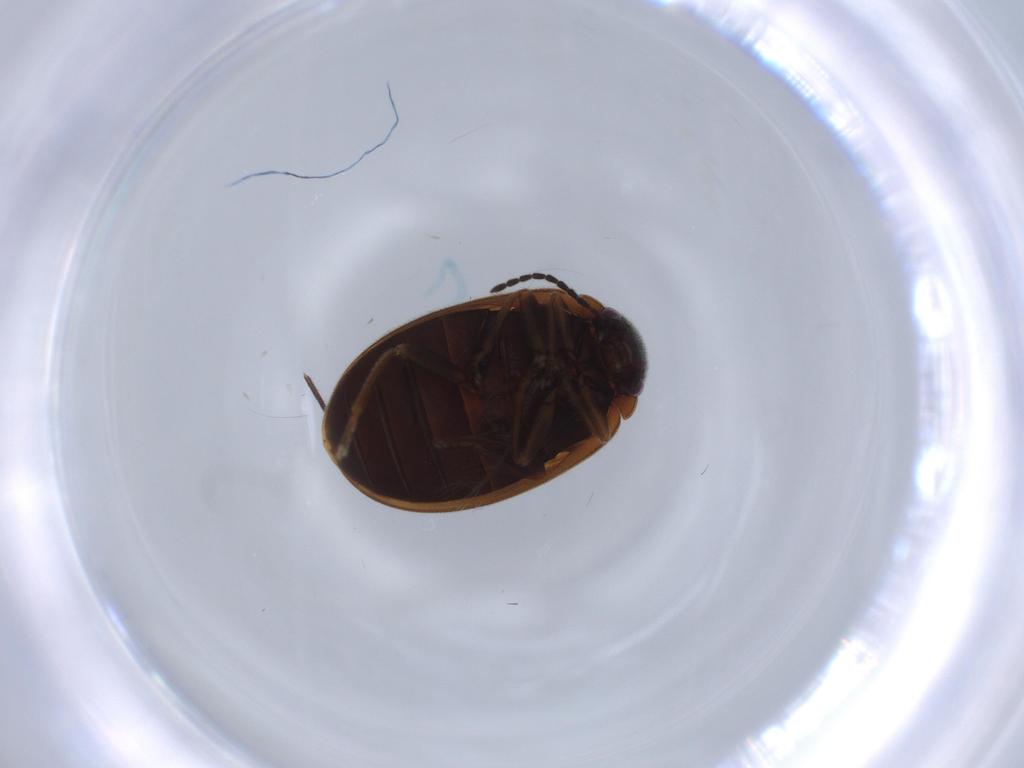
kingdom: Animalia
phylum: Arthropoda
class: Insecta
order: Coleoptera
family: Scirtidae
